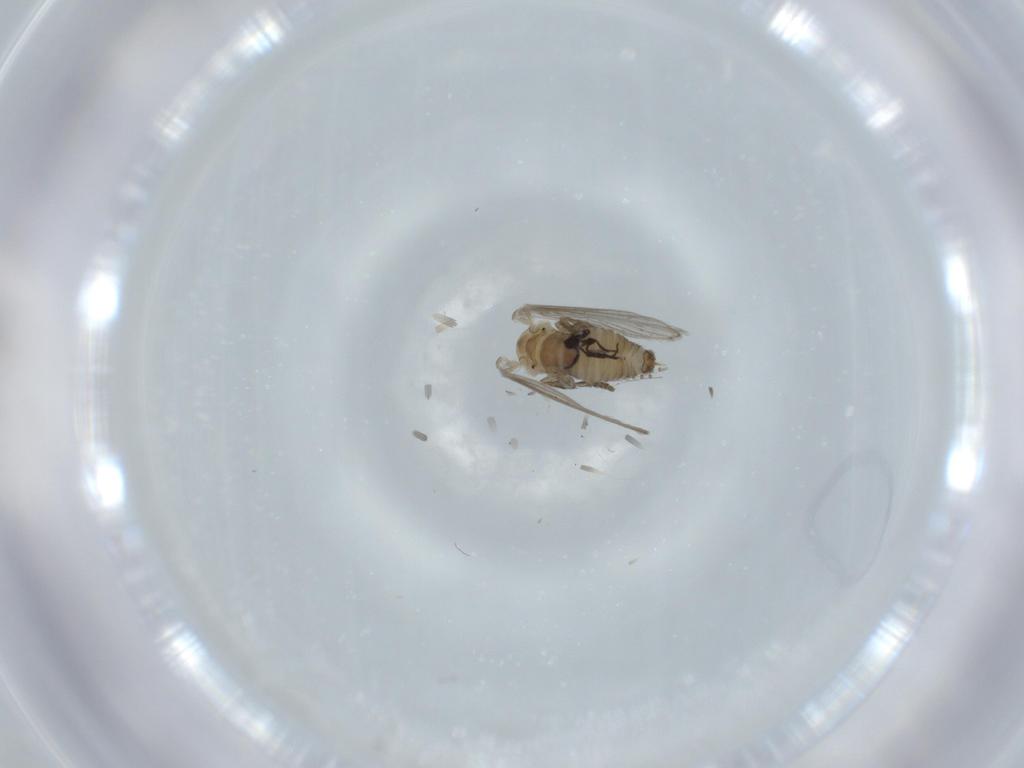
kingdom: Animalia
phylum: Arthropoda
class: Insecta
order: Diptera
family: Psychodidae
